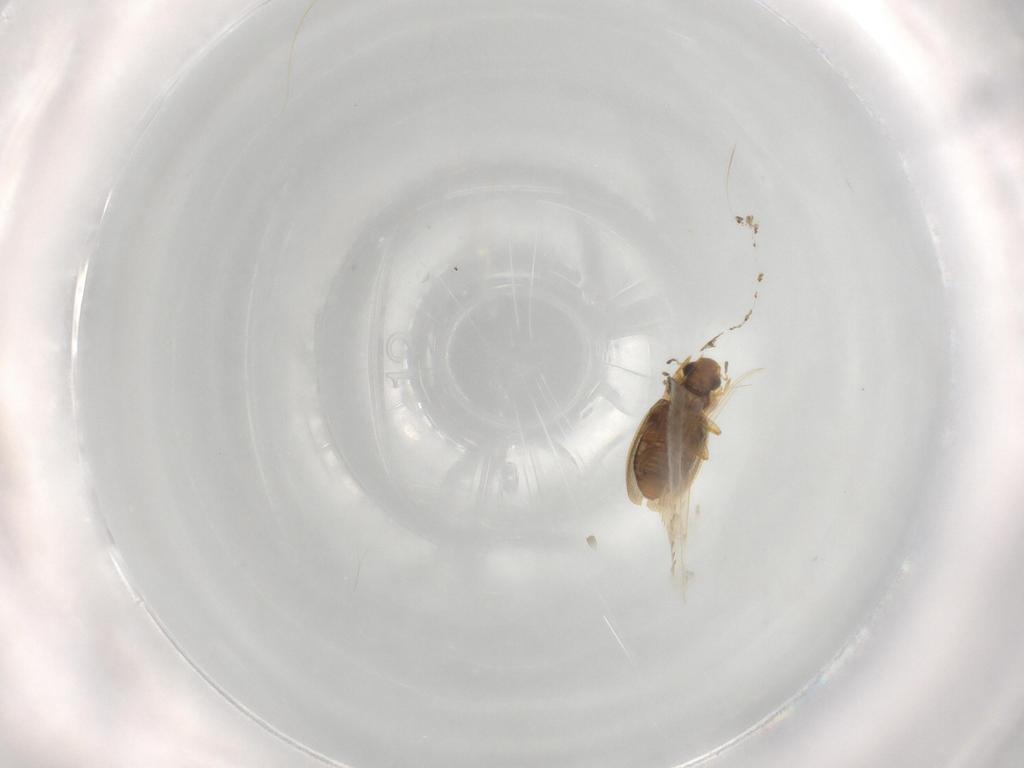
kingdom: Animalia
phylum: Arthropoda
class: Insecta
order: Coleoptera
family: Hydraenidae
